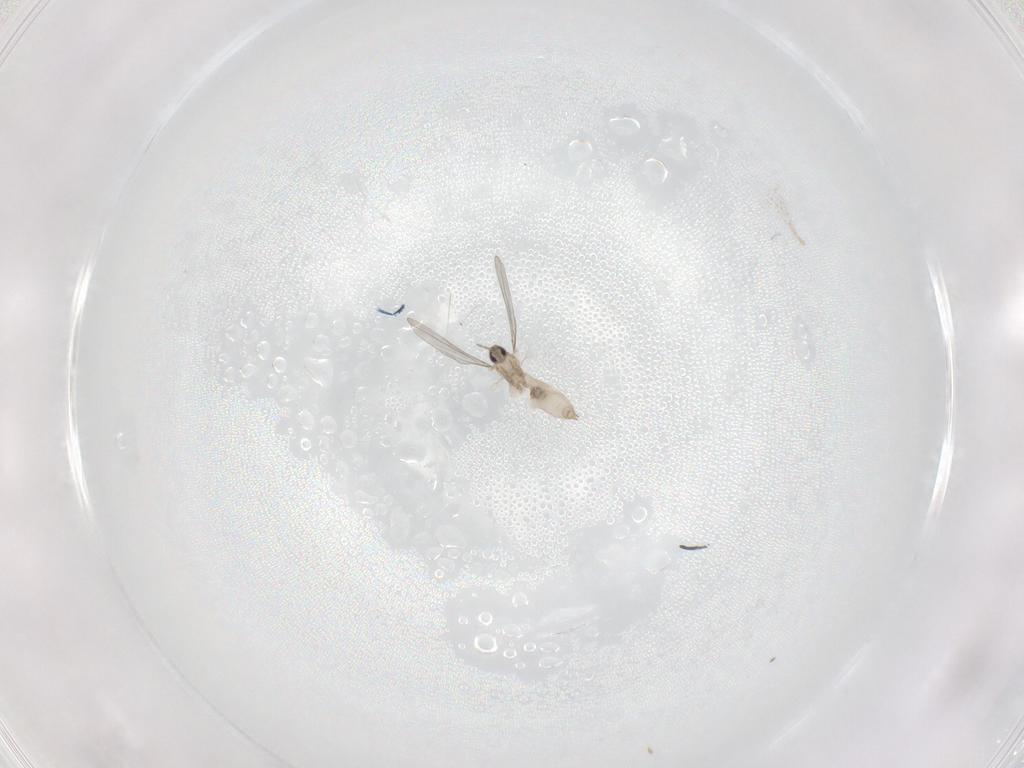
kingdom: Animalia
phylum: Arthropoda
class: Insecta
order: Diptera
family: Cecidomyiidae
